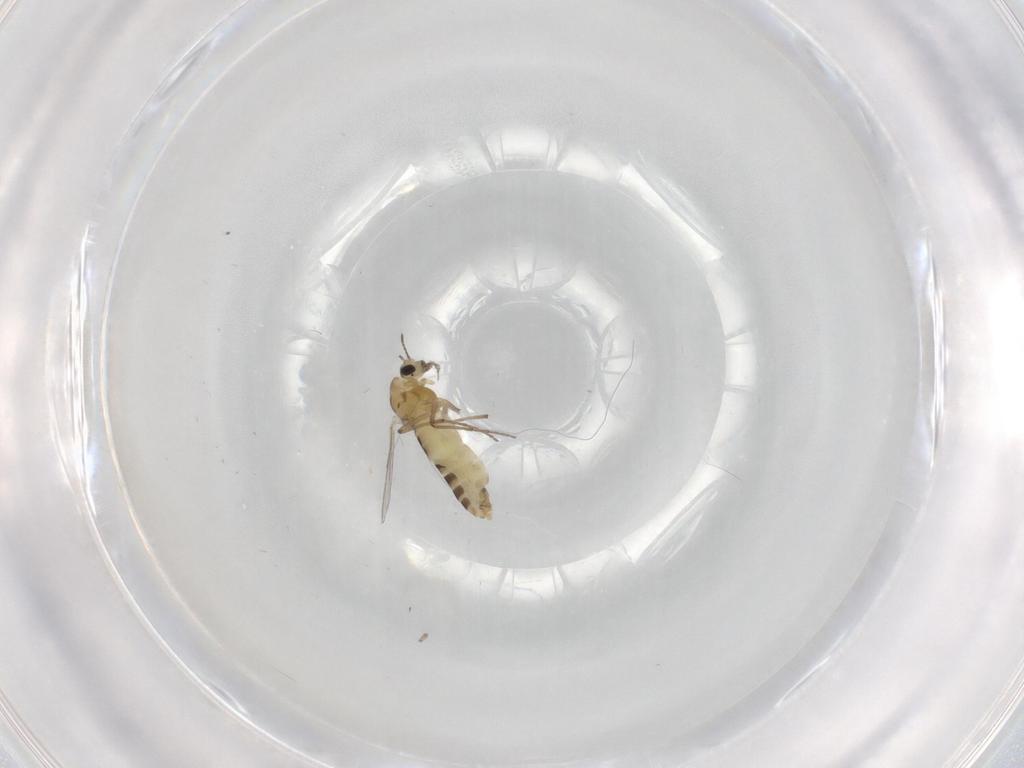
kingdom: Animalia
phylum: Arthropoda
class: Insecta
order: Diptera
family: Chironomidae
